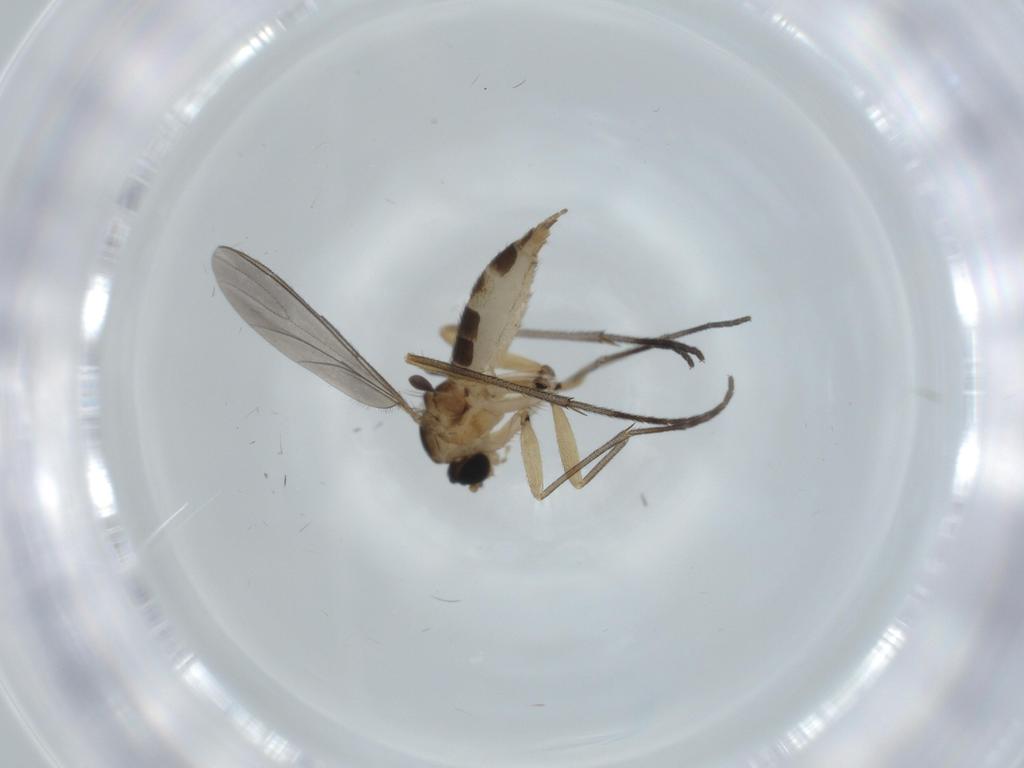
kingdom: Animalia
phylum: Arthropoda
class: Insecta
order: Diptera
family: Sciaridae
